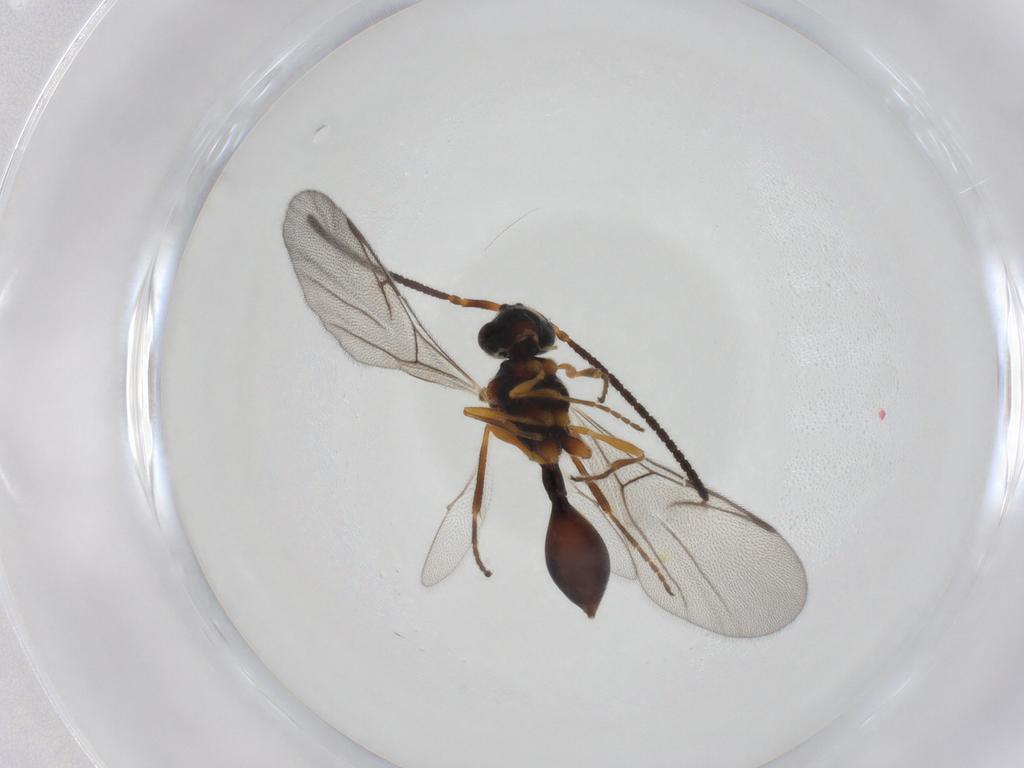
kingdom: Animalia
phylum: Arthropoda
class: Insecta
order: Hymenoptera
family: Diapriidae
